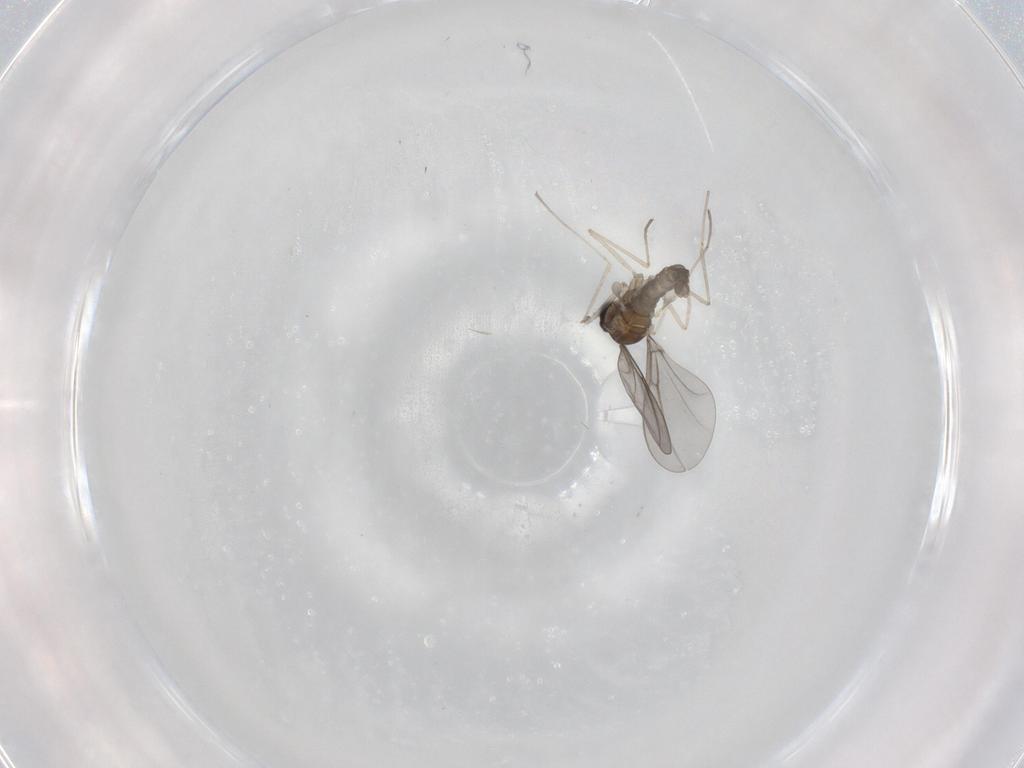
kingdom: Animalia
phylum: Arthropoda
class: Insecta
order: Diptera
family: Cecidomyiidae
